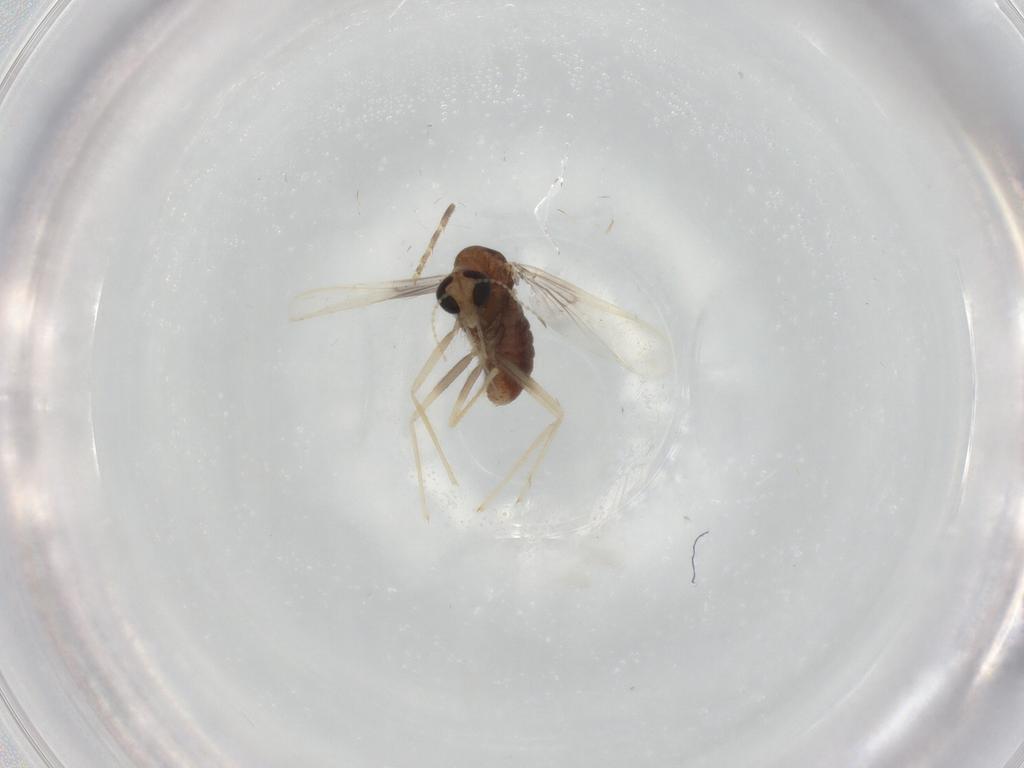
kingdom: Animalia
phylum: Arthropoda
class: Insecta
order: Diptera
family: Chironomidae
